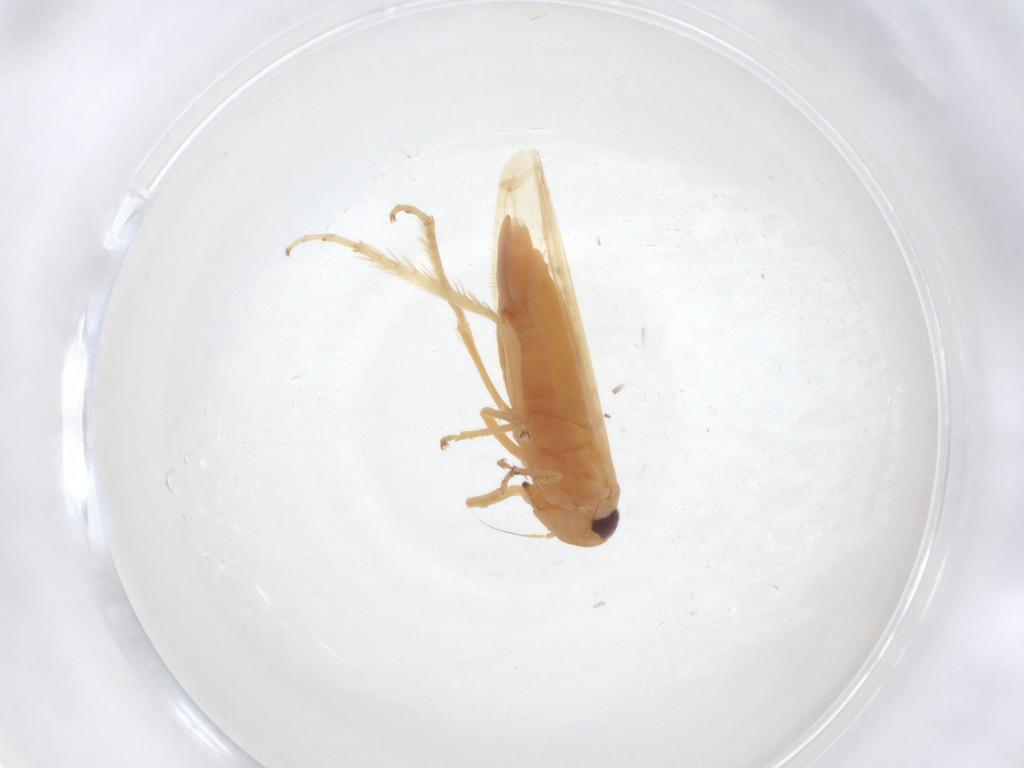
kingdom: Animalia
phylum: Arthropoda
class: Insecta
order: Hemiptera
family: Cicadellidae
